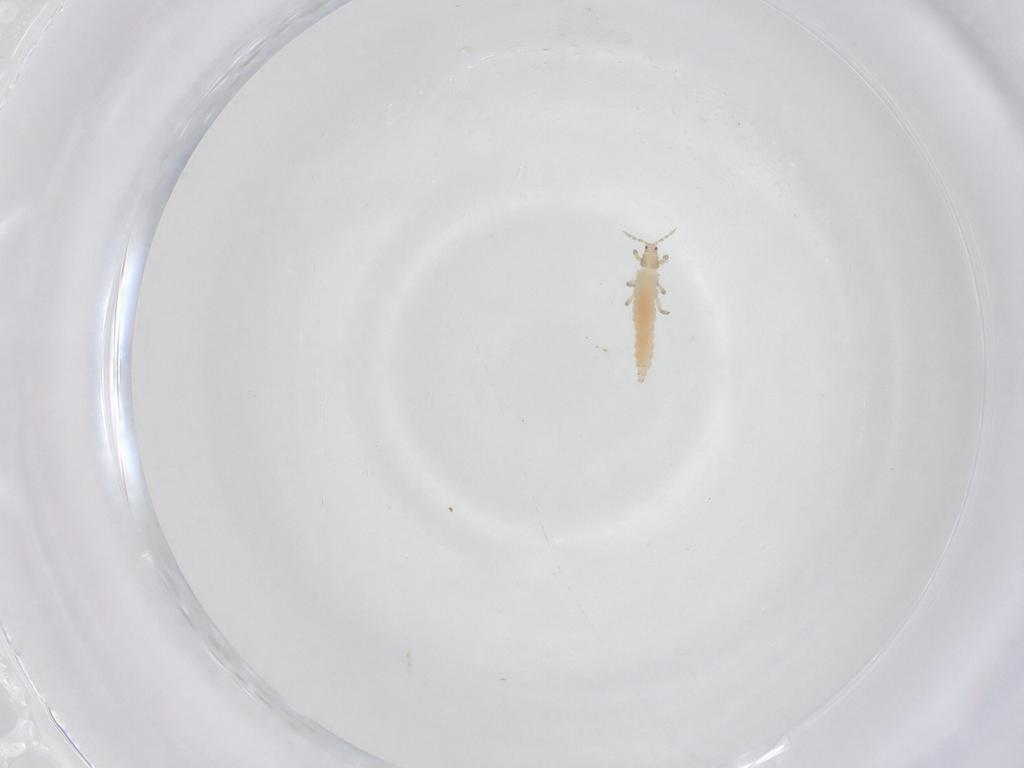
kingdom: Animalia
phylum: Arthropoda
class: Insecta
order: Thysanoptera
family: Aeolothripidae
